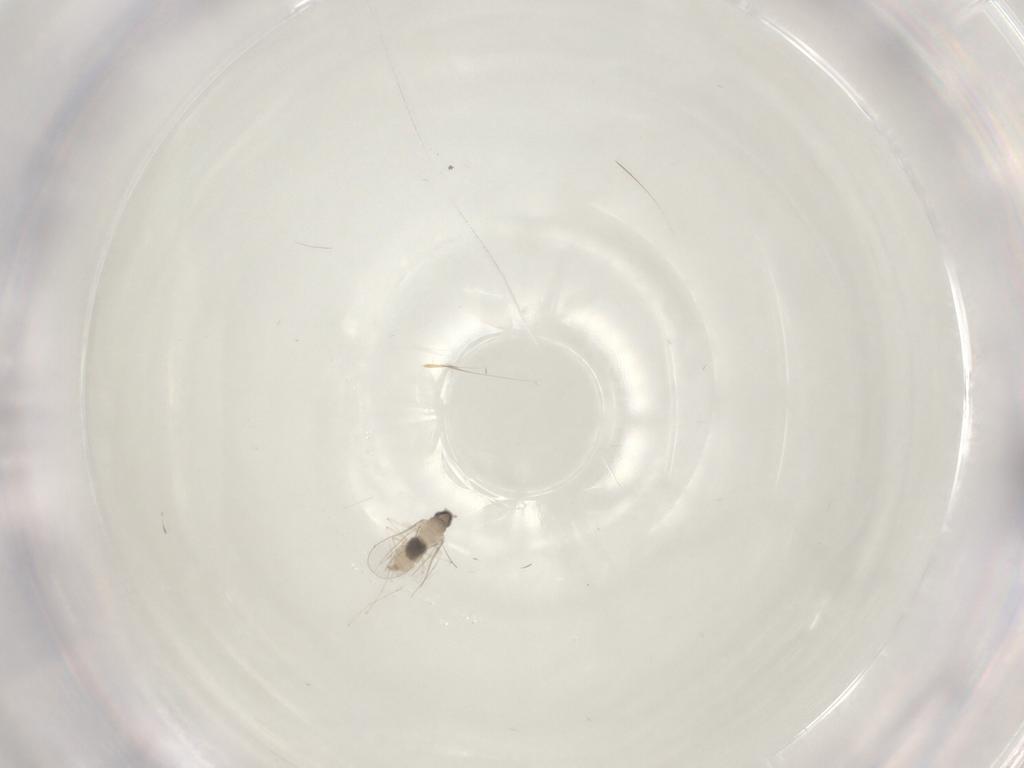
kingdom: Animalia
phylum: Arthropoda
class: Insecta
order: Diptera
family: Cecidomyiidae
